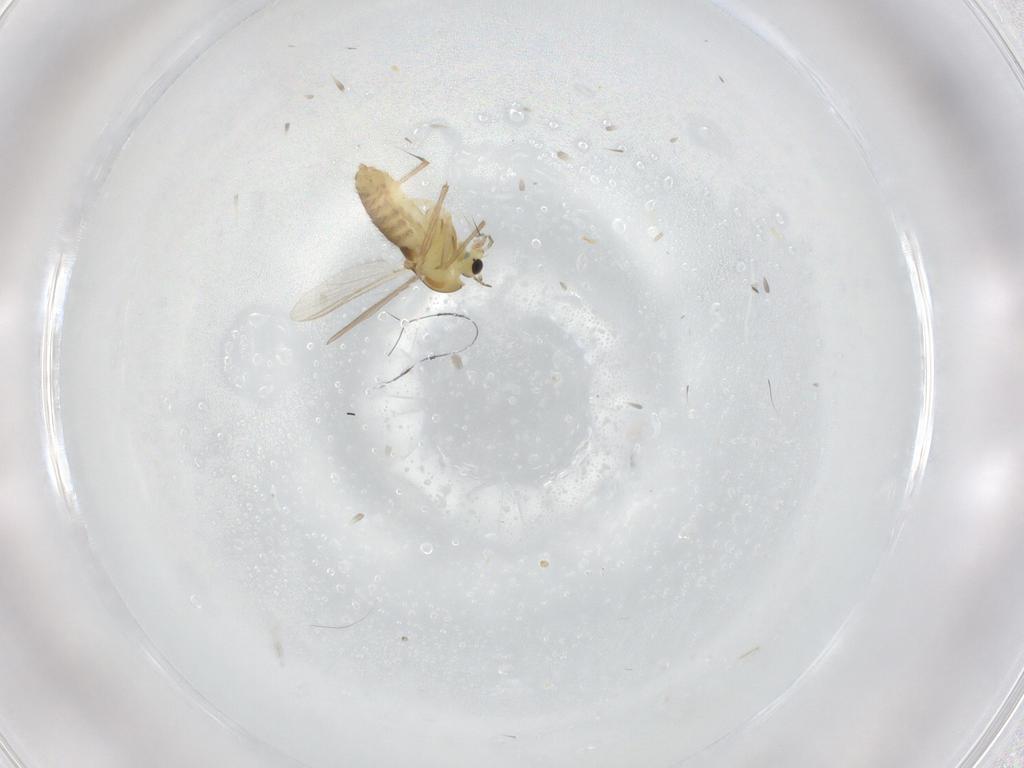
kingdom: Animalia
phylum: Arthropoda
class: Insecta
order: Diptera
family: Chironomidae
